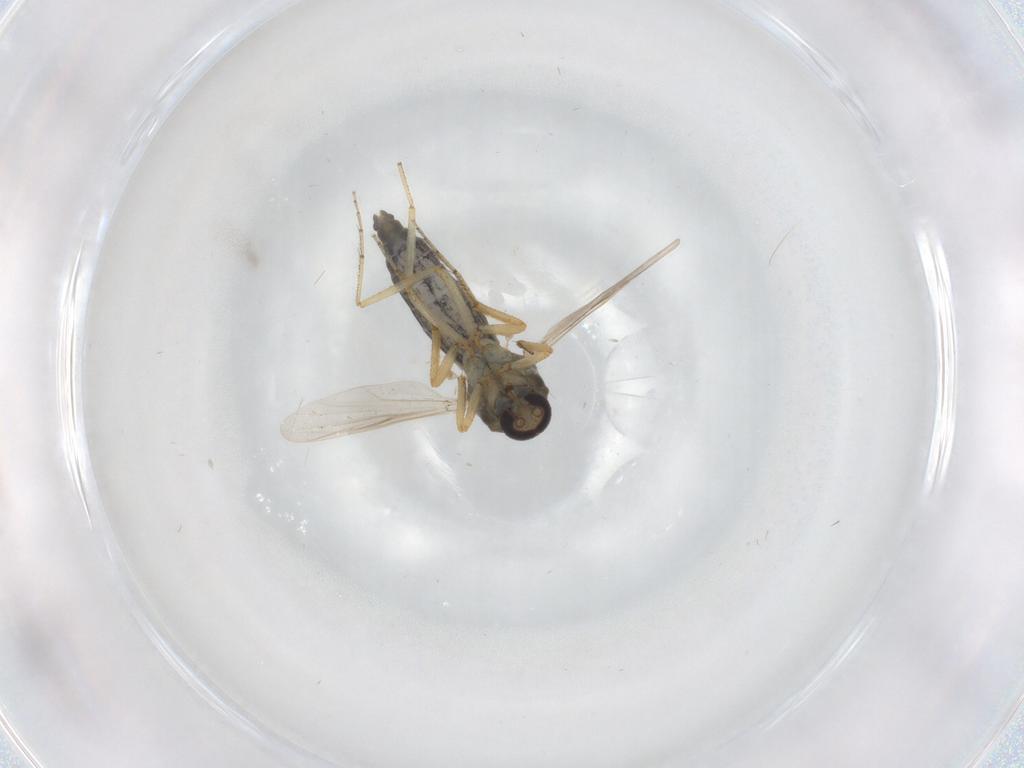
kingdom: Animalia
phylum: Arthropoda
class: Insecta
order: Diptera
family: Ceratopogonidae
